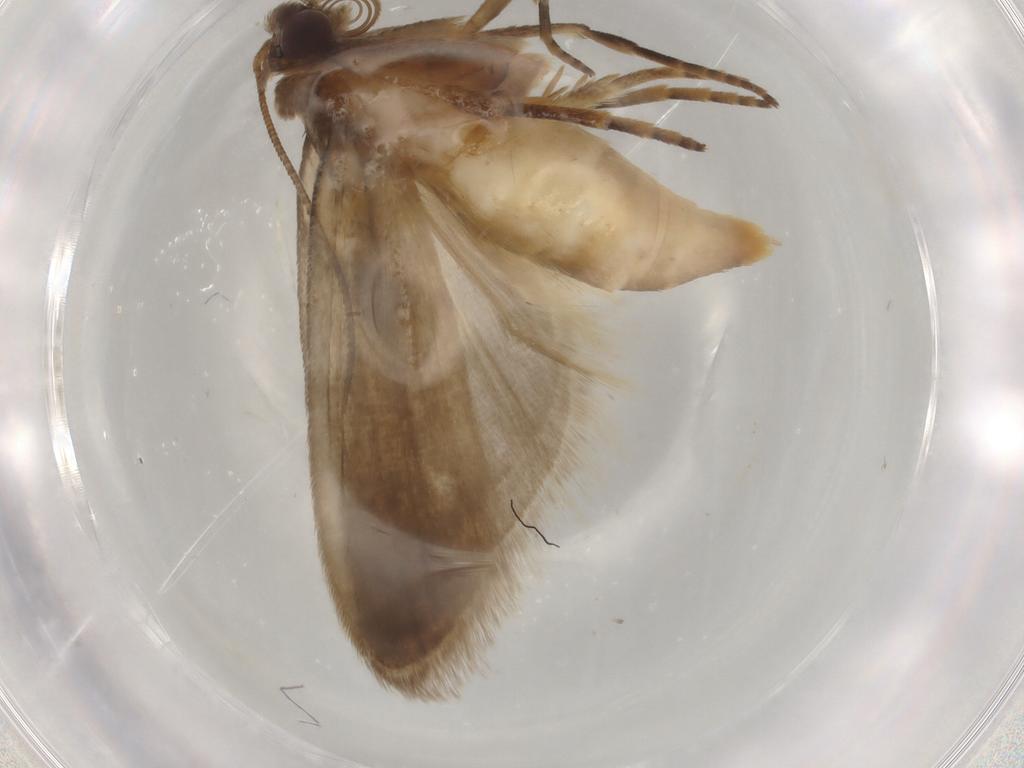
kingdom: Animalia
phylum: Arthropoda
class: Insecta
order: Lepidoptera
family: Noctuidae
